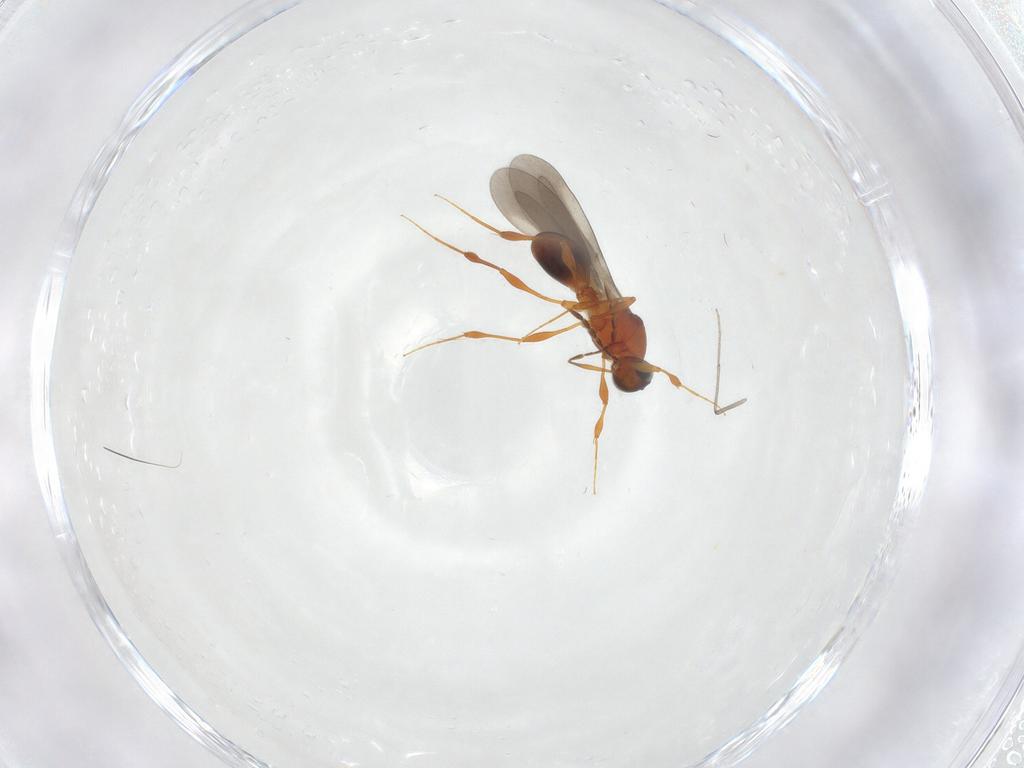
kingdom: Animalia
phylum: Arthropoda
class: Insecta
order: Hymenoptera
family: Platygastridae
